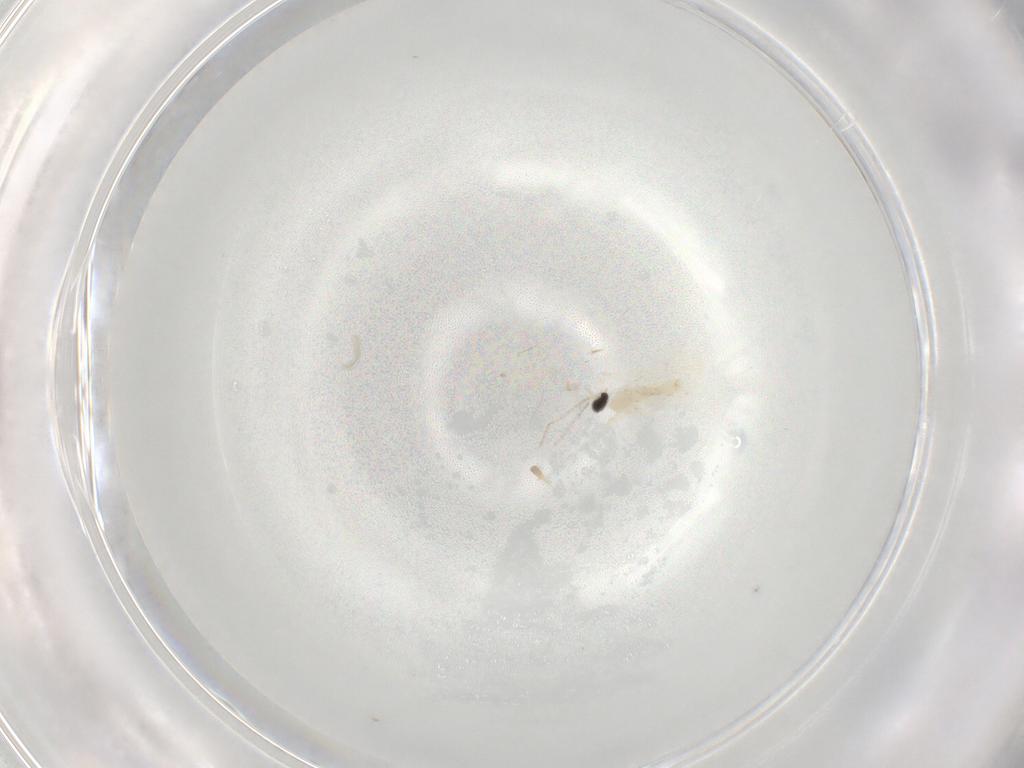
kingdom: Animalia
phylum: Arthropoda
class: Insecta
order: Diptera
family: Cecidomyiidae
